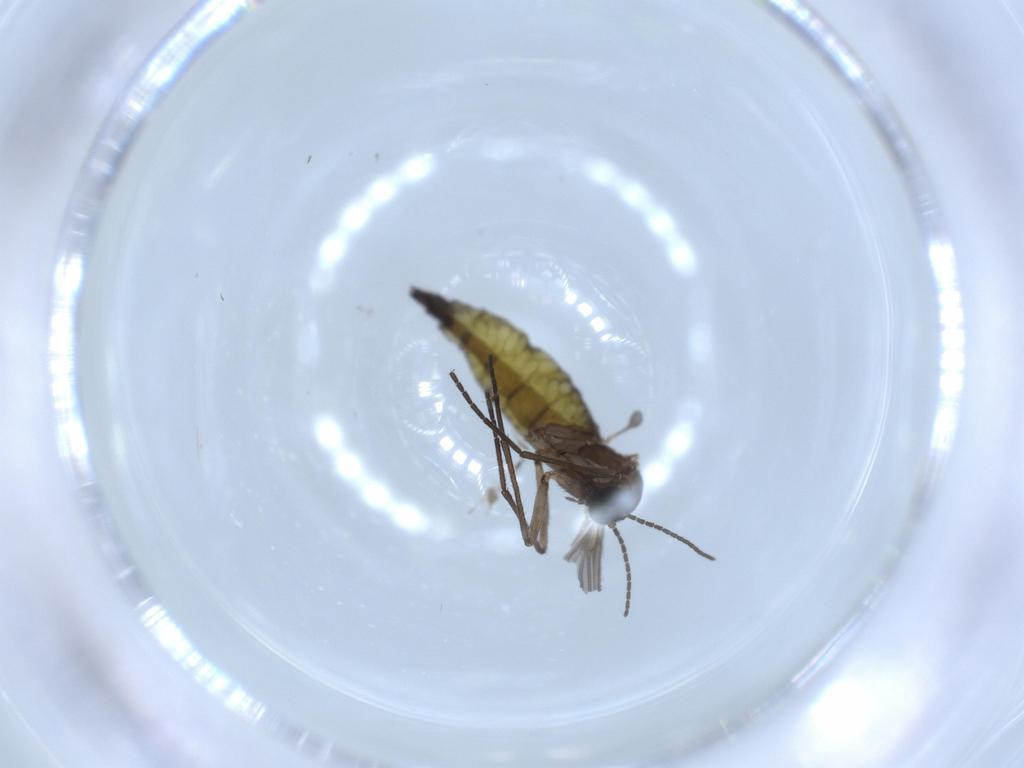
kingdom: Animalia
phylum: Arthropoda
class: Insecta
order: Diptera
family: Sciaridae
